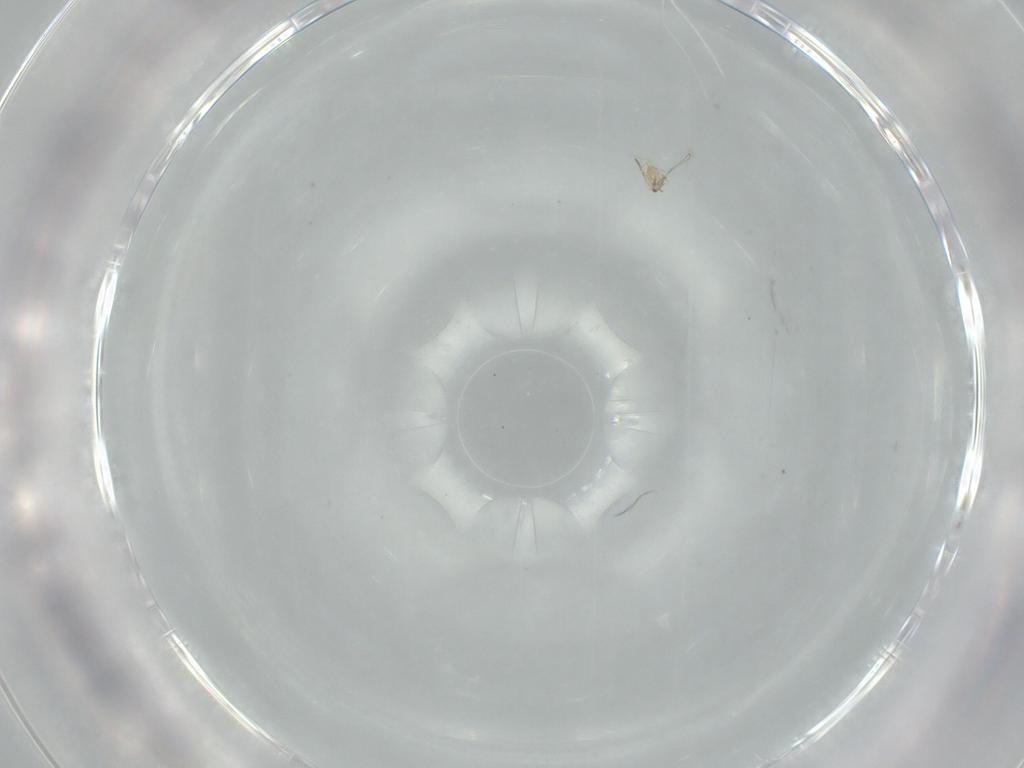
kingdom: Animalia
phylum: Arthropoda
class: Insecta
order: Hymenoptera
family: Mymaridae
